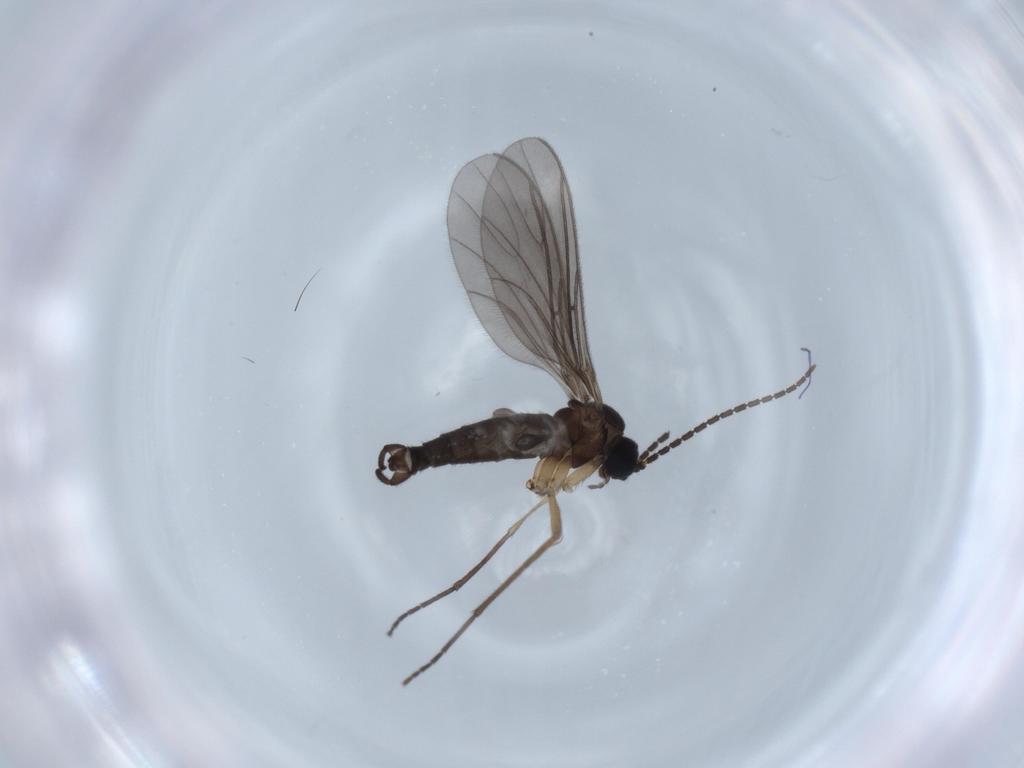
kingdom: Animalia
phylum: Arthropoda
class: Insecta
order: Diptera
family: Sciaridae
